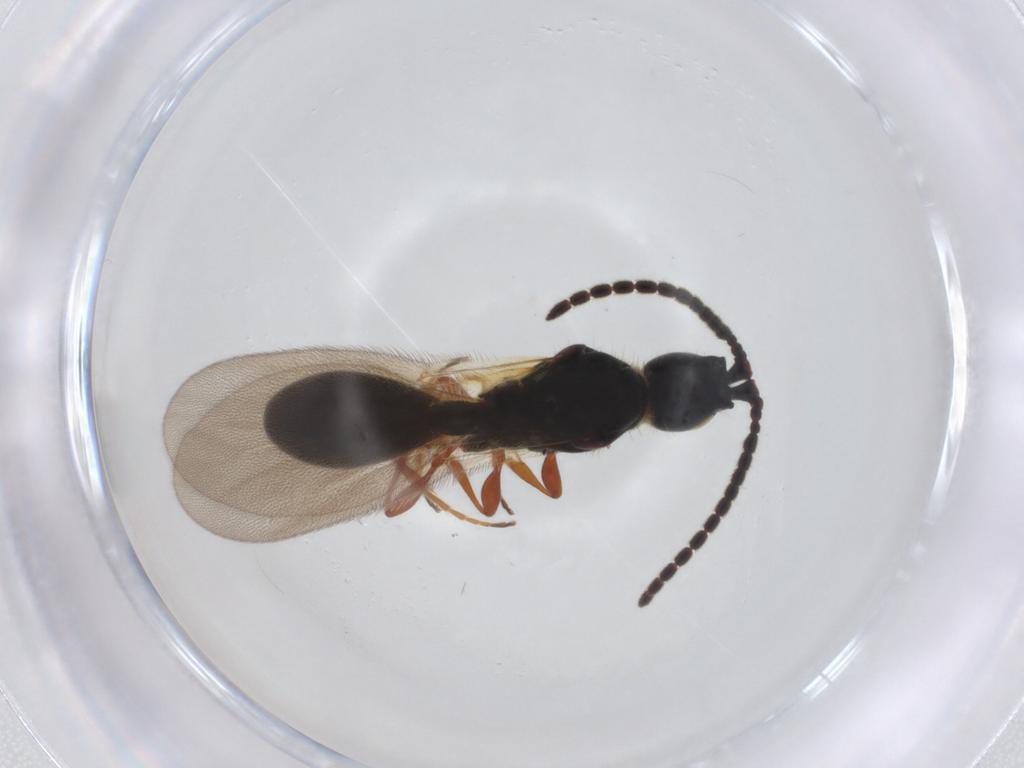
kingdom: Animalia
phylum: Arthropoda
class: Insecta
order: Hymenoptera
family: Diapriidae
